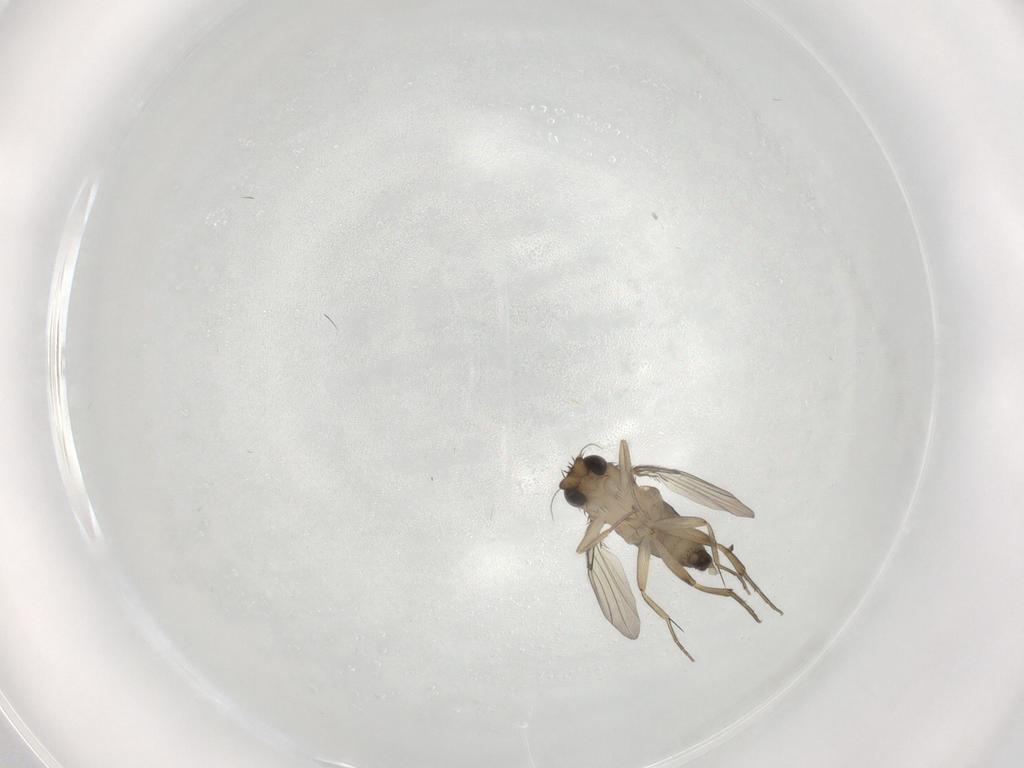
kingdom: Animalia
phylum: Arthropoda
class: Insecta
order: Diptera
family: Phoridae
